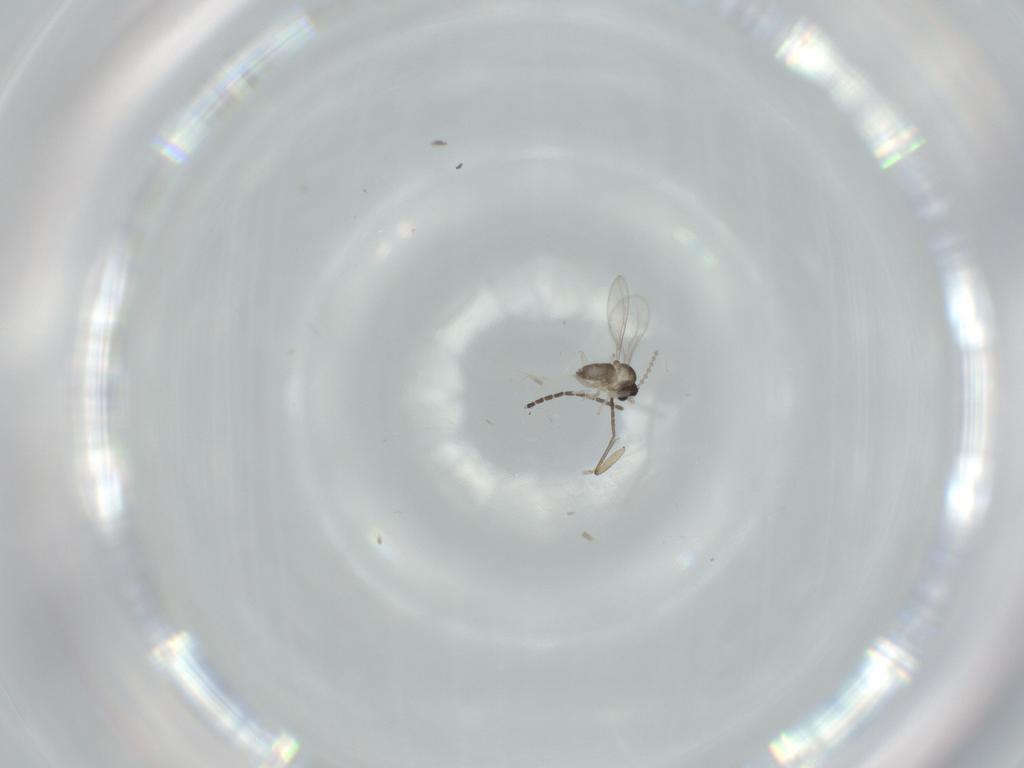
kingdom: Animalia
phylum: Arthropoda
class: Insecta
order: Diptera
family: Cecidomyiidae
